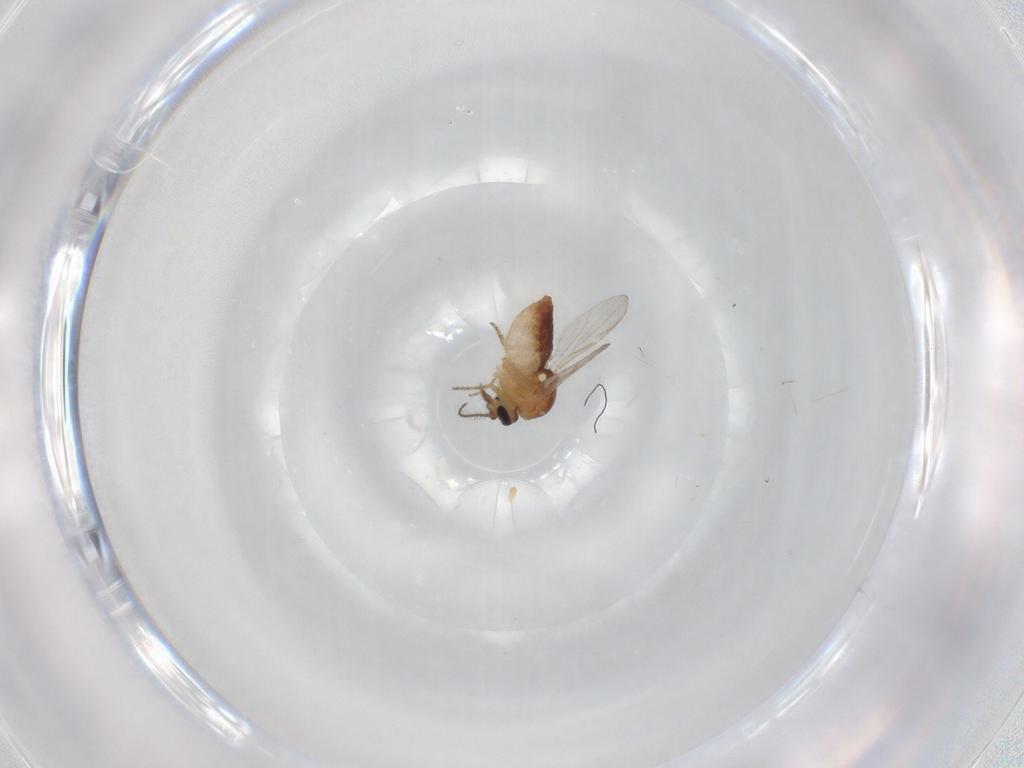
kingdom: Animalia
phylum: Arthropoda
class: Insecta
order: Diptera
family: Ceratopogonidae
